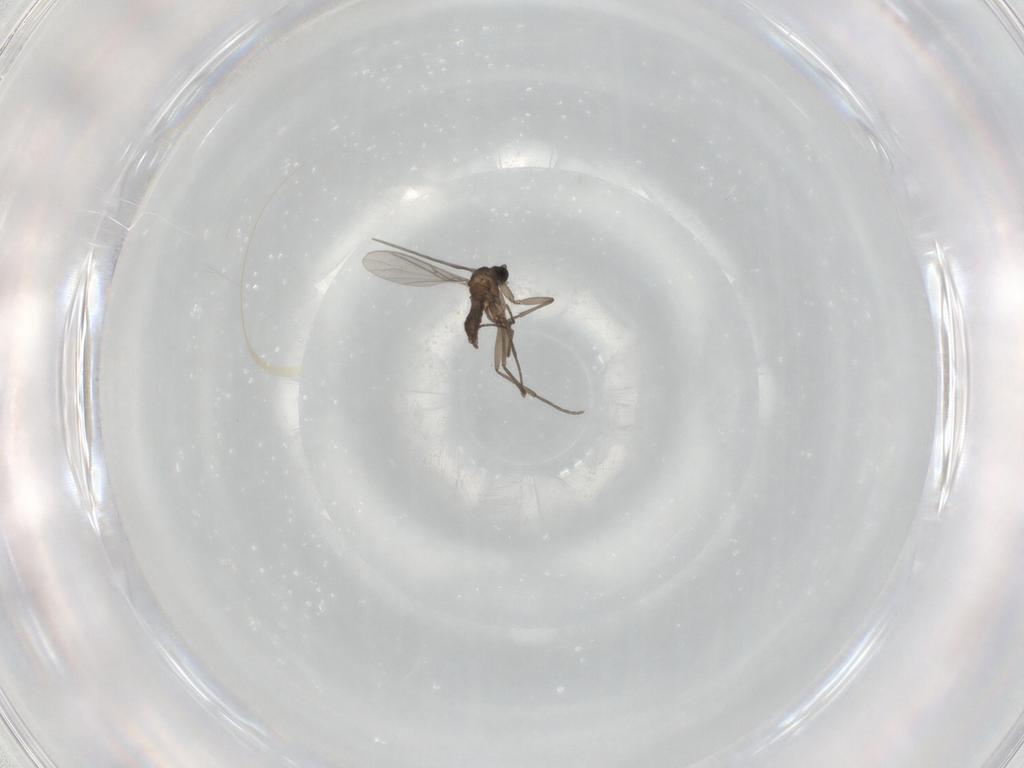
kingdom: Animalia
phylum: Arthropoda
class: Insecta
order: Diptera
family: Sciaridae
